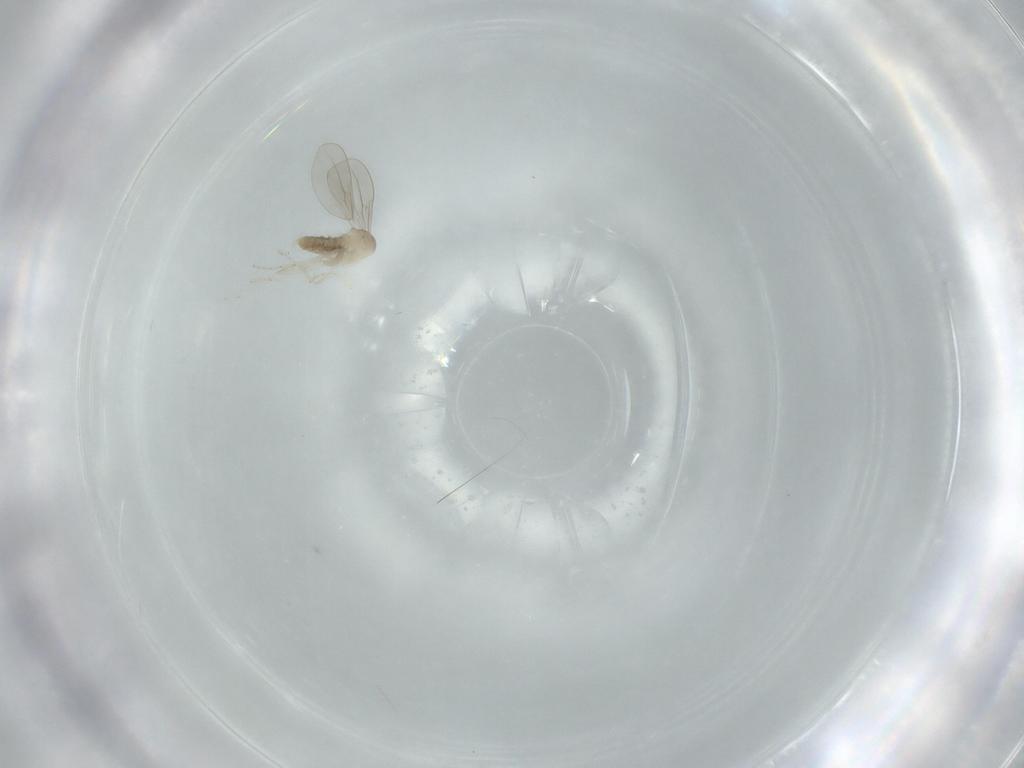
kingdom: Animalia
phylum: Arthropoda
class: Insecta
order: Diptera
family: Cecidomyiidae
